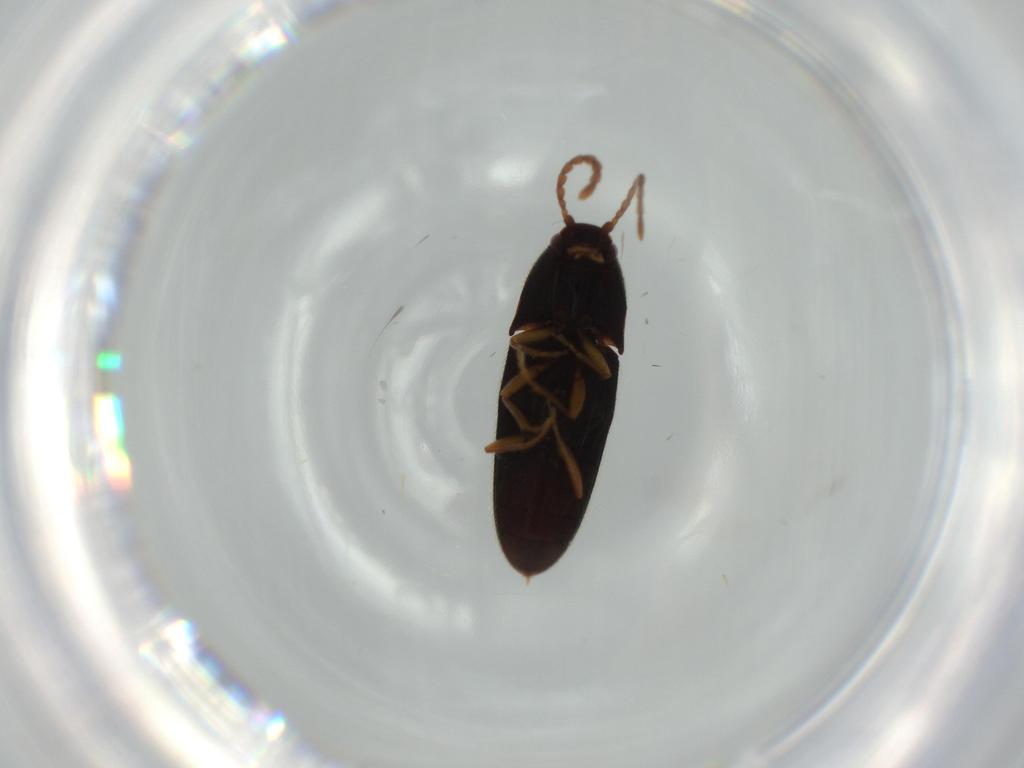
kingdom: Animalia
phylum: Arthropoda
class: Insecta
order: Coleoptera
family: Elateridae
